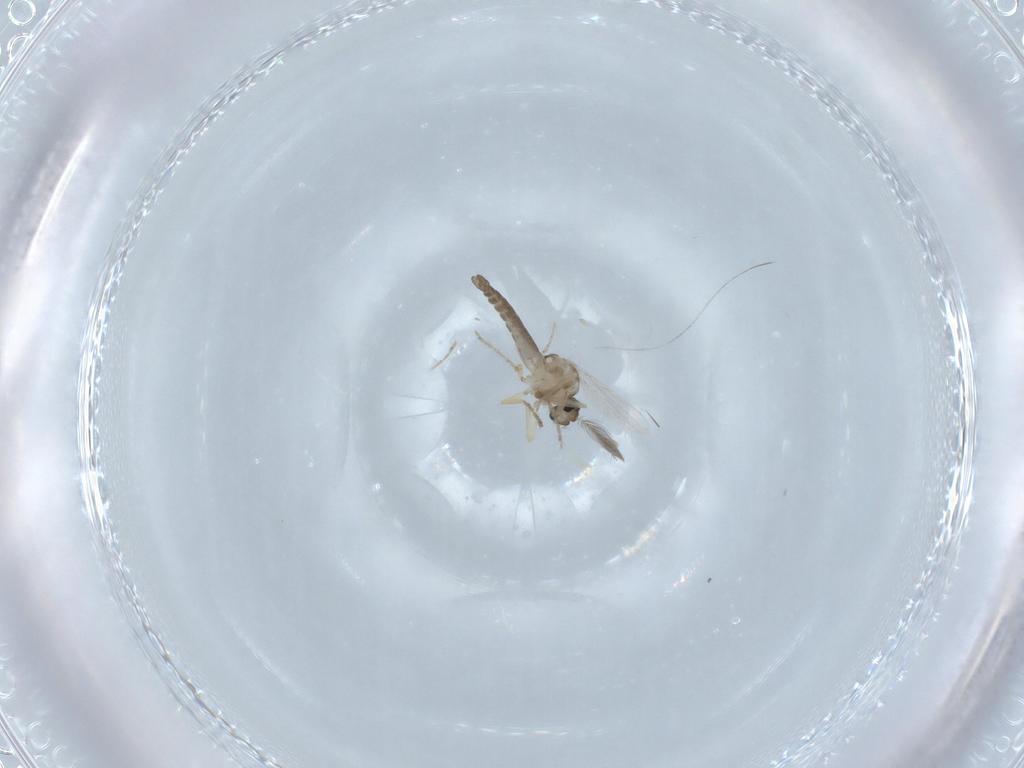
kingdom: Animalia
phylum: Arthropoda
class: Insecta
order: Diptera
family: Ceratopogonidae
